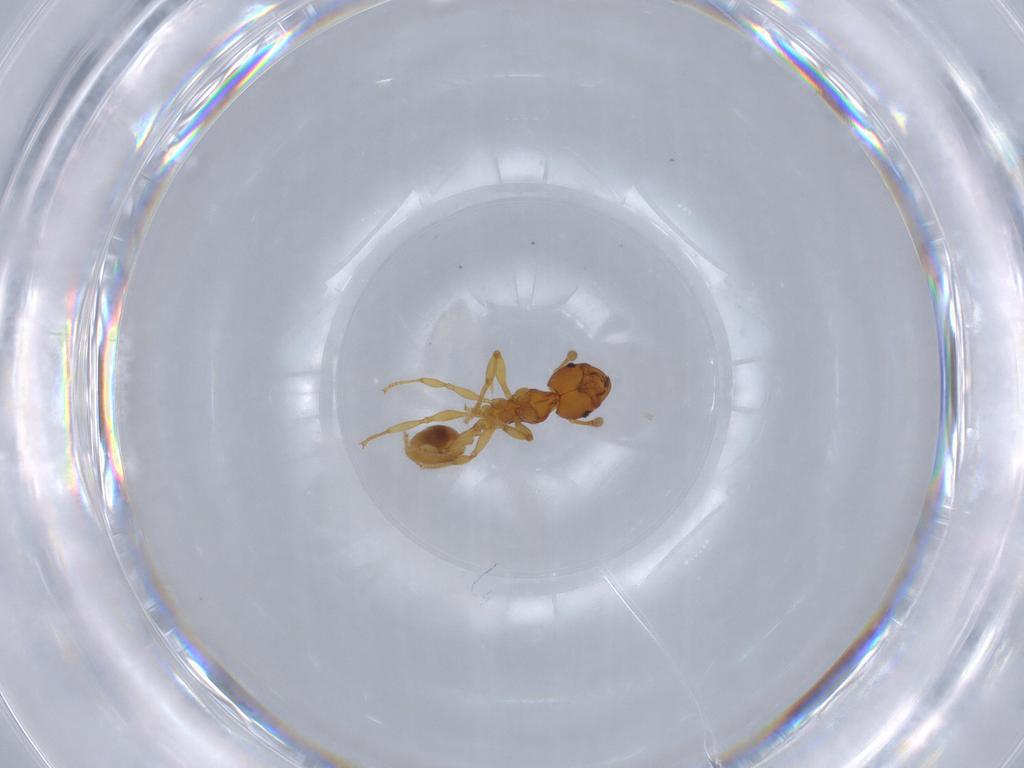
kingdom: Animalia
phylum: Arthropoda
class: Insecta
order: Hymenoptera
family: Formicidae
